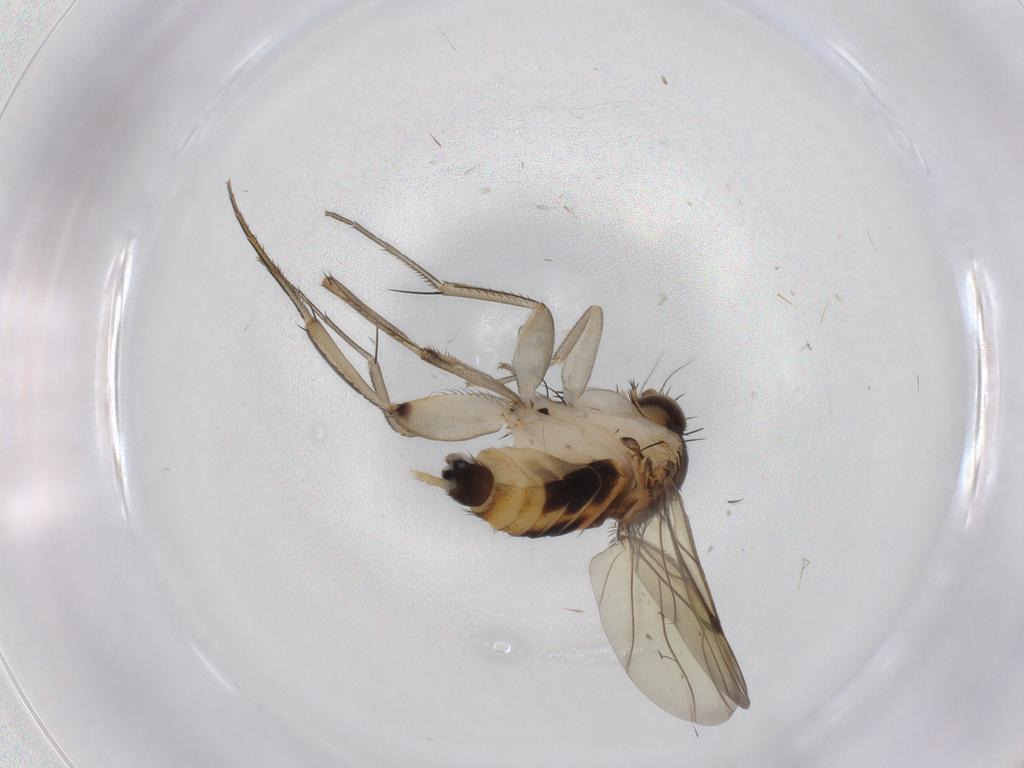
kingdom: Animalia
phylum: Arthropoda
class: Insecta
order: Diptera
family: Phoridae
